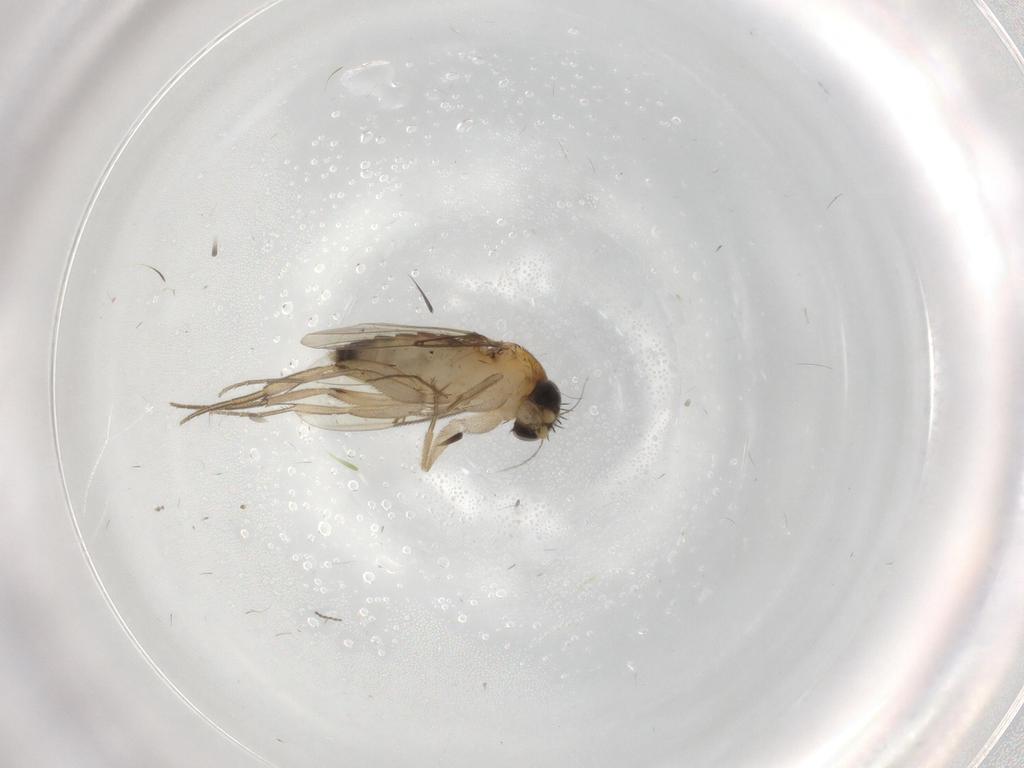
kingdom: Animalia
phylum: Arthropoda
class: Insecta
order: Diptera
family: Phoridae
